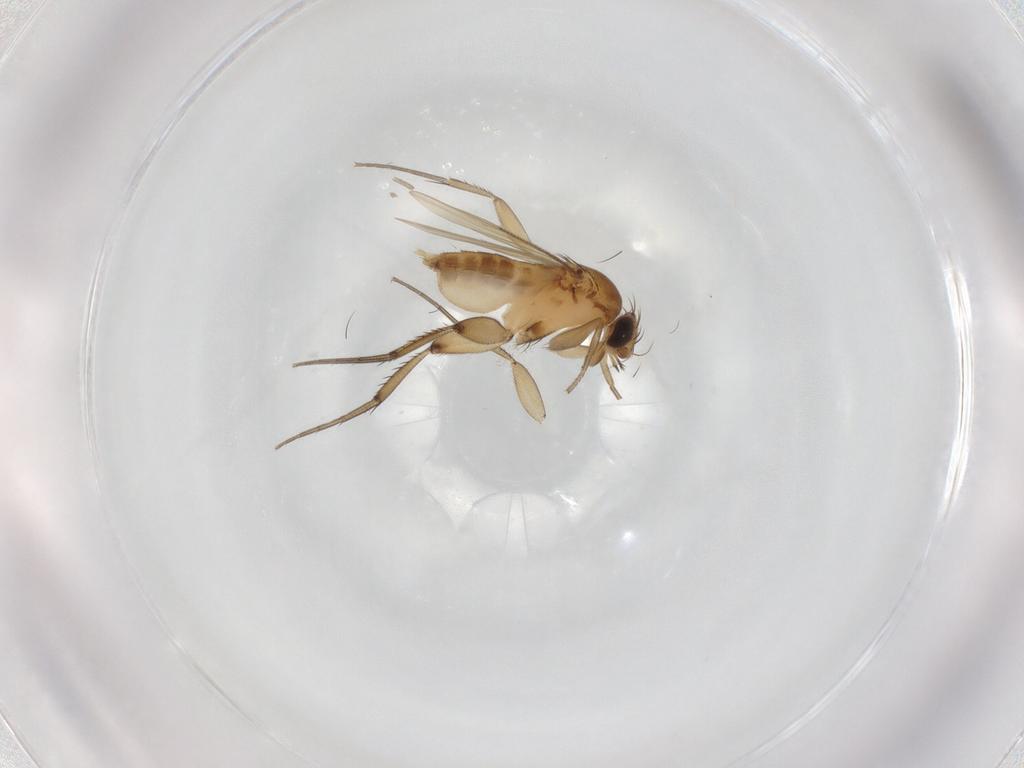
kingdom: Animalia
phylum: Arthropoda
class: Insecta
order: Diptera
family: Phoridae
